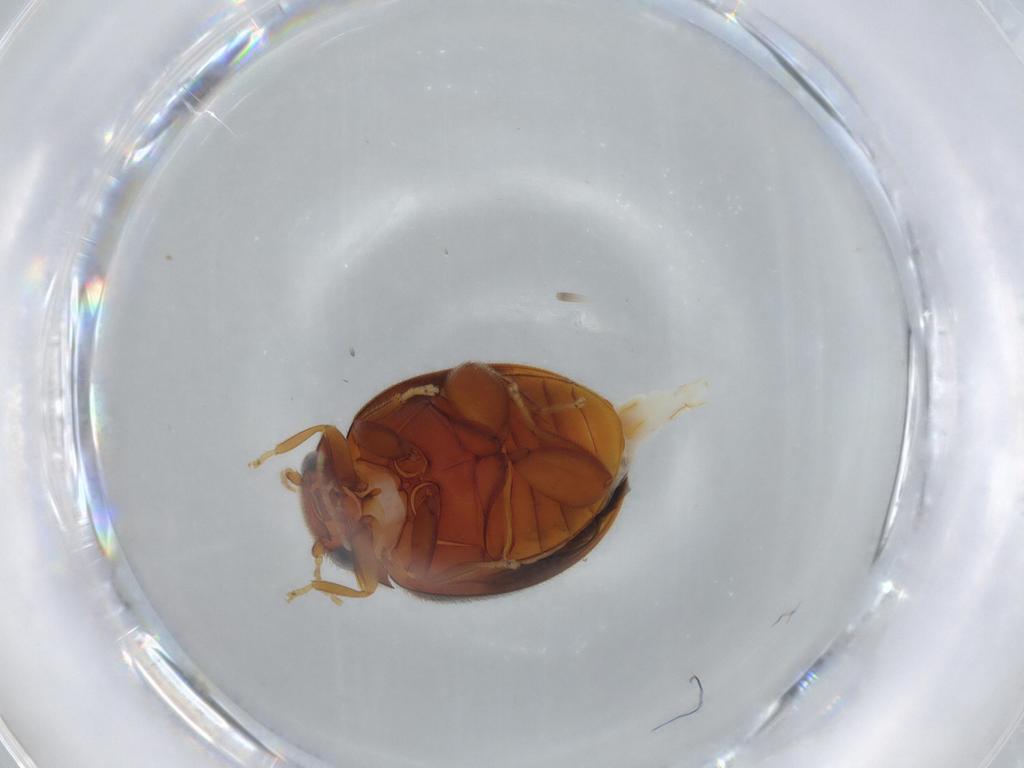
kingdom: Animalia
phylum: Arthropoda
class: Insecta
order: Coleoptera
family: Scirtidae
